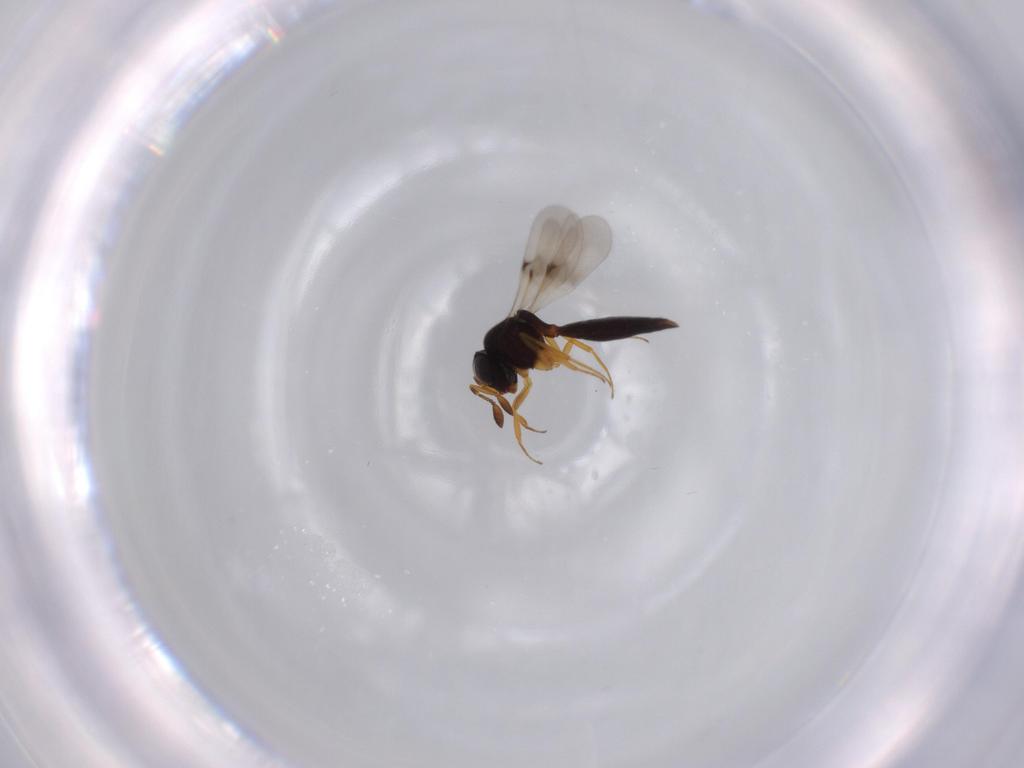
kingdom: Animalia
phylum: Arthropoda
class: Insecta
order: Hymenoptera
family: Scelionidae
